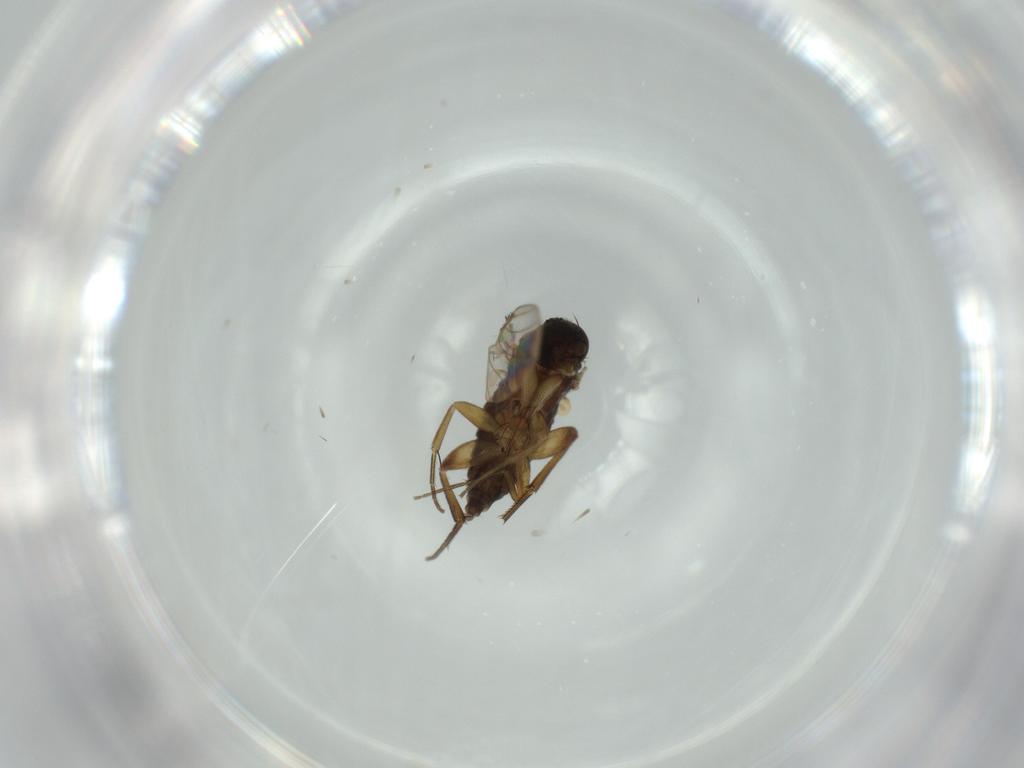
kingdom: Animalia
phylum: Arthropoda
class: Insecta
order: Diptera
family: Phoridae
